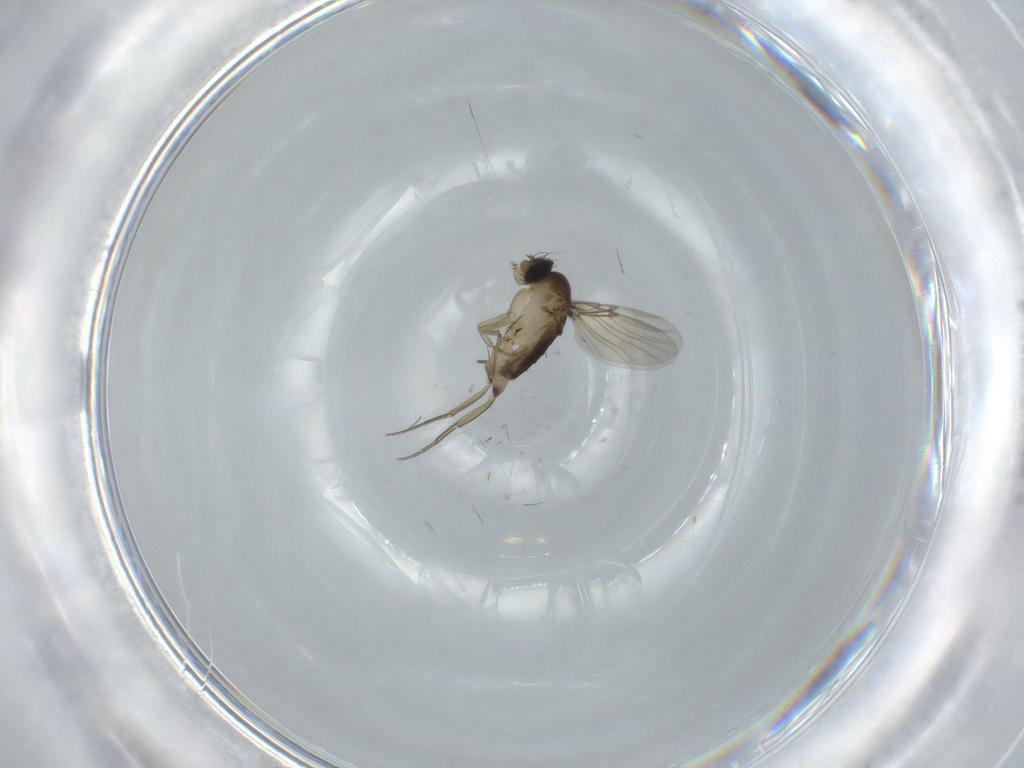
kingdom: Animalia
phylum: Arthropoda
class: Insecta
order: Diptera
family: Phoridae
